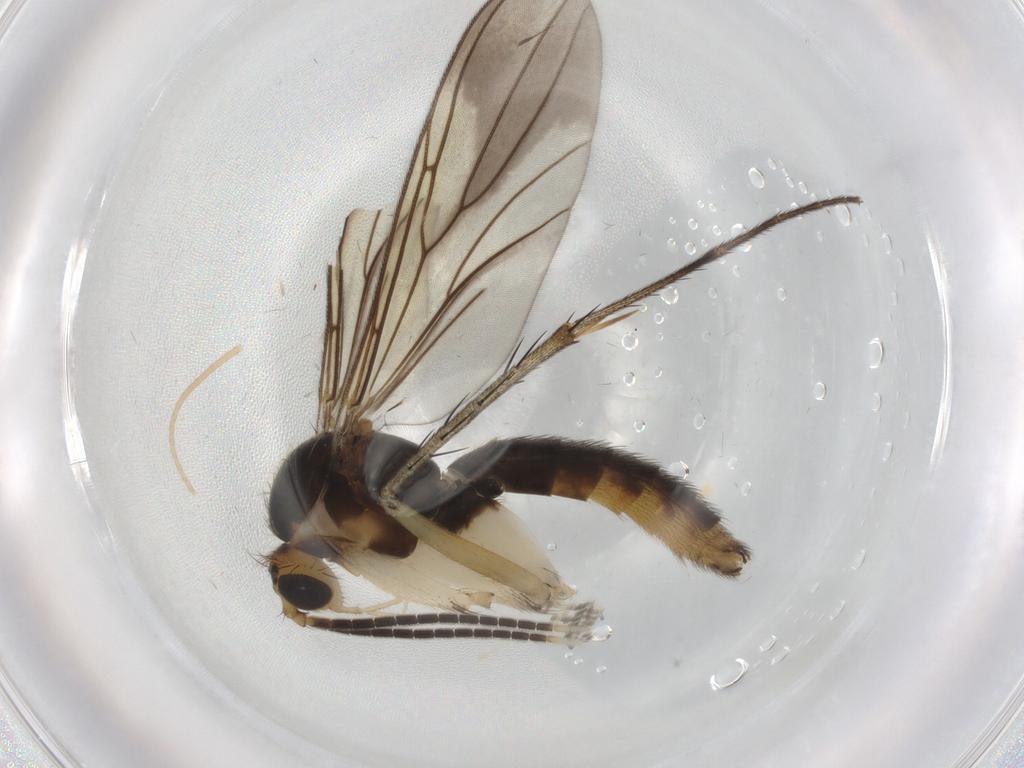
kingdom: Animalia
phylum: Arthropoda
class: Insecta
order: Diptera
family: Mycetophilidae
